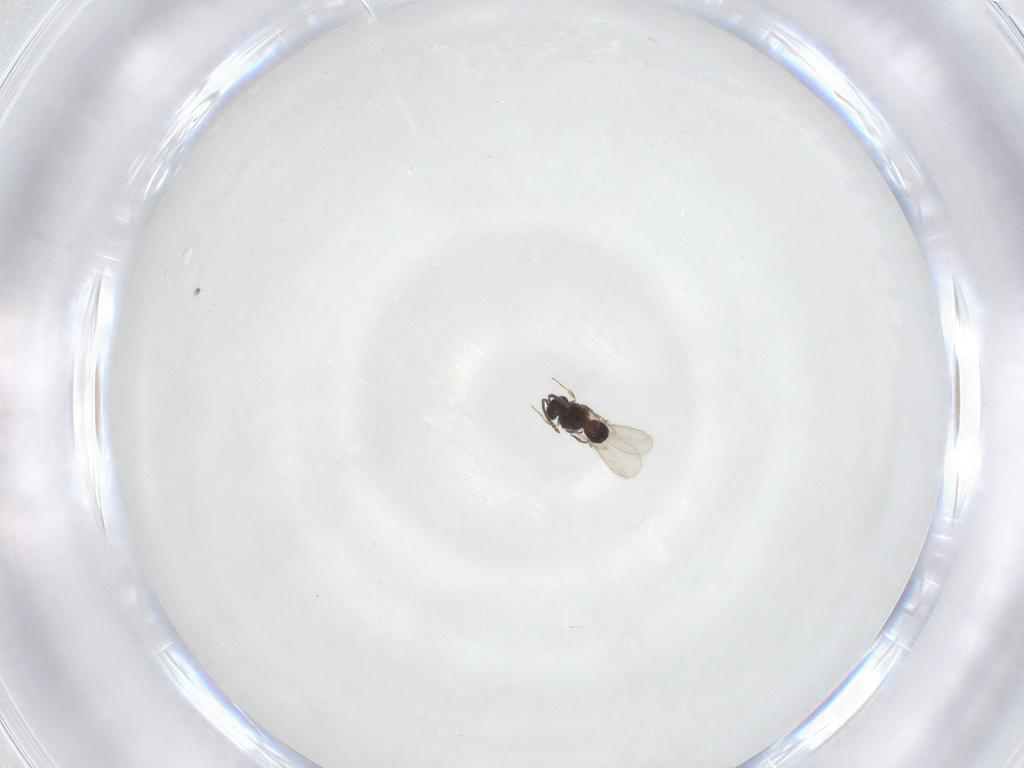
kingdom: Animalia
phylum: Arthropoda
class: Insecta
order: Hymenoptera
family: Scelionidae
